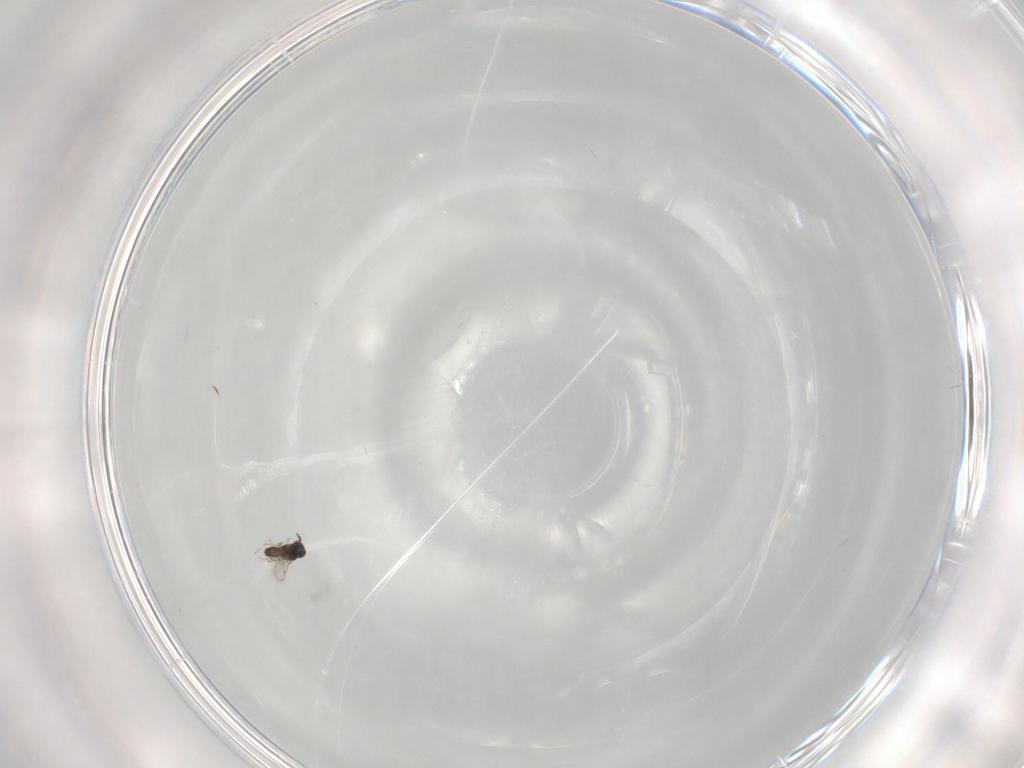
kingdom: Animalia
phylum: Arthropoda
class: Insecta
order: Hymenoptera
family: Eulophidae
